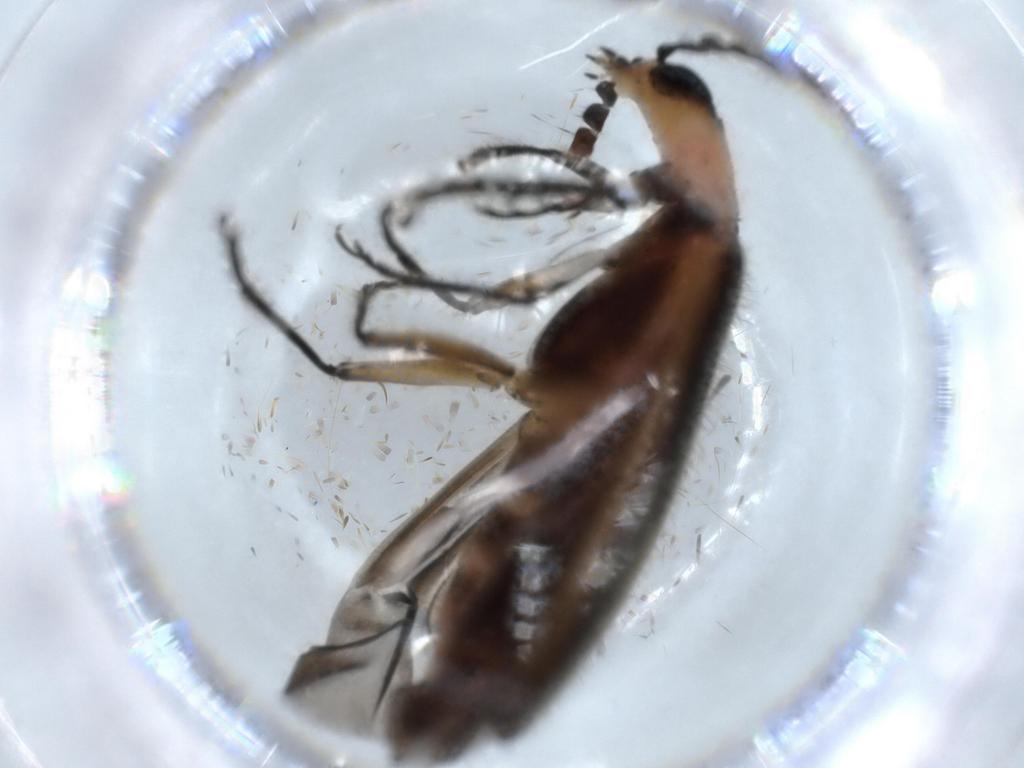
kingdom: Animalia
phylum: Arthropoda
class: Insecta
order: Coleoptera
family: Cleridae
